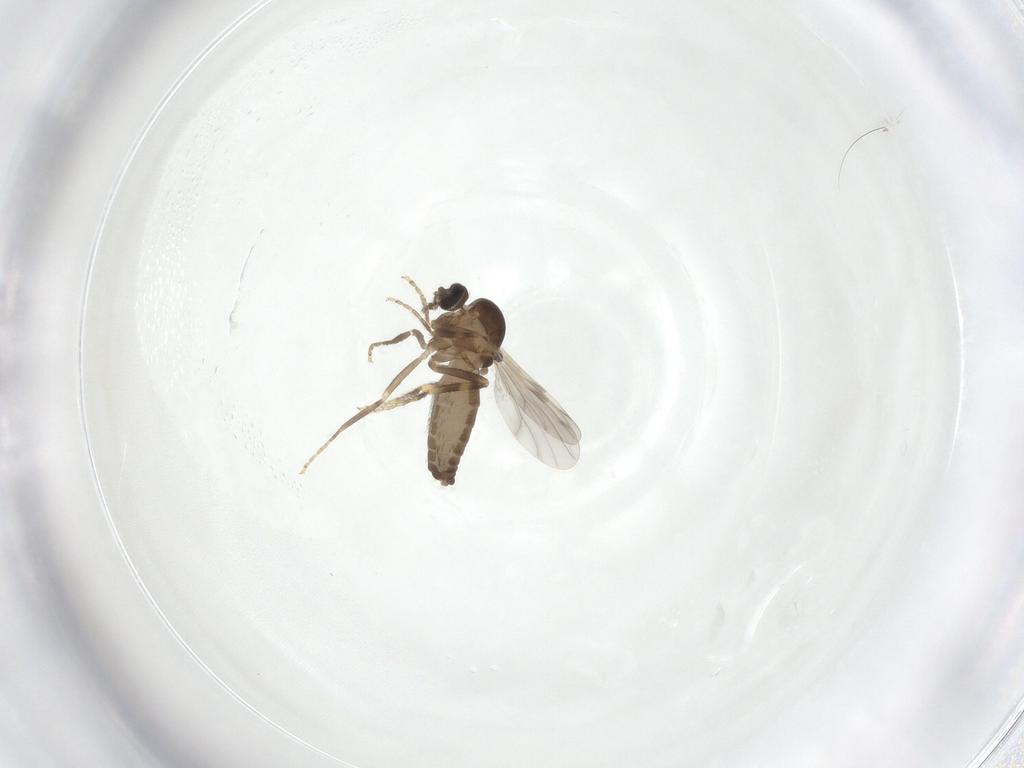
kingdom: Animalia
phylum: Arthropoda
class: Insecta
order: Diptera
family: Ceratopogonidae
